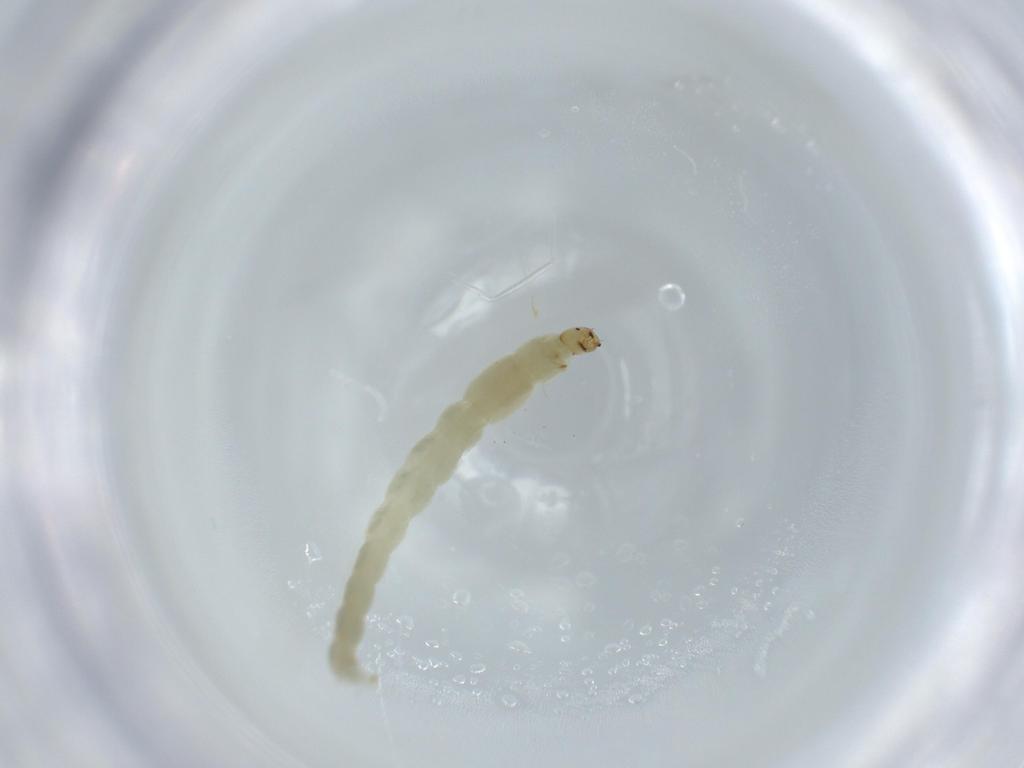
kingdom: Animalia
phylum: Arthropoda
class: Insecta
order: Diptera
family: Chironomidae
